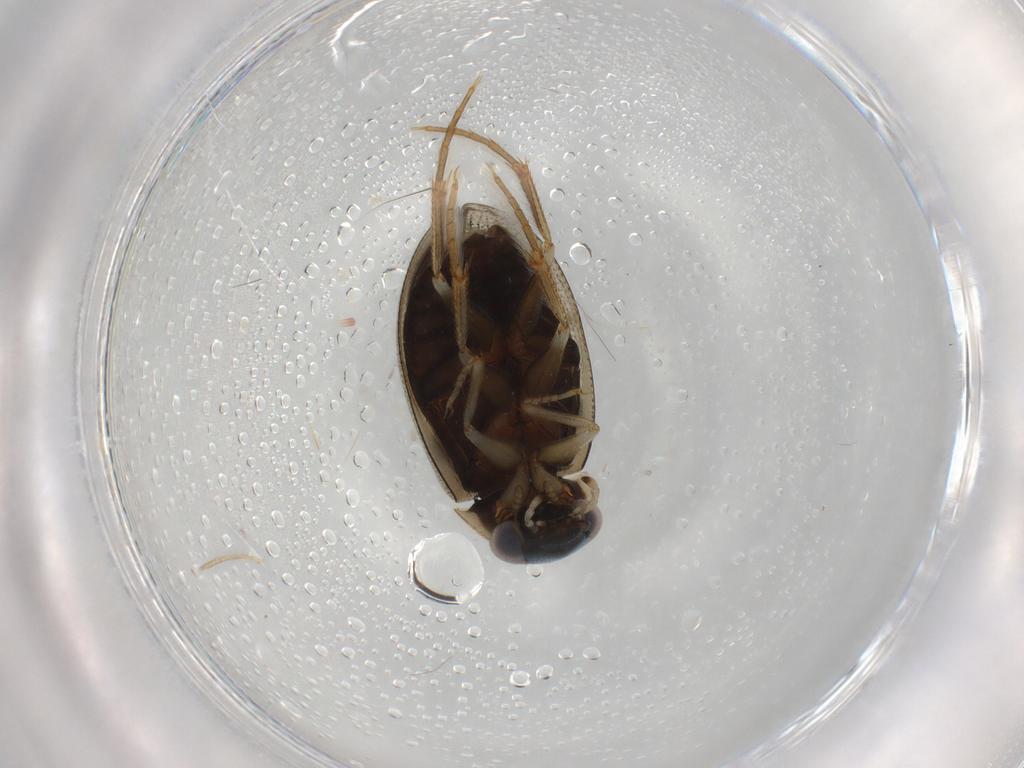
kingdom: Animalia
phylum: Arthropoda
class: Insecta
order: Coleoptera
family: Hydrophilidae
